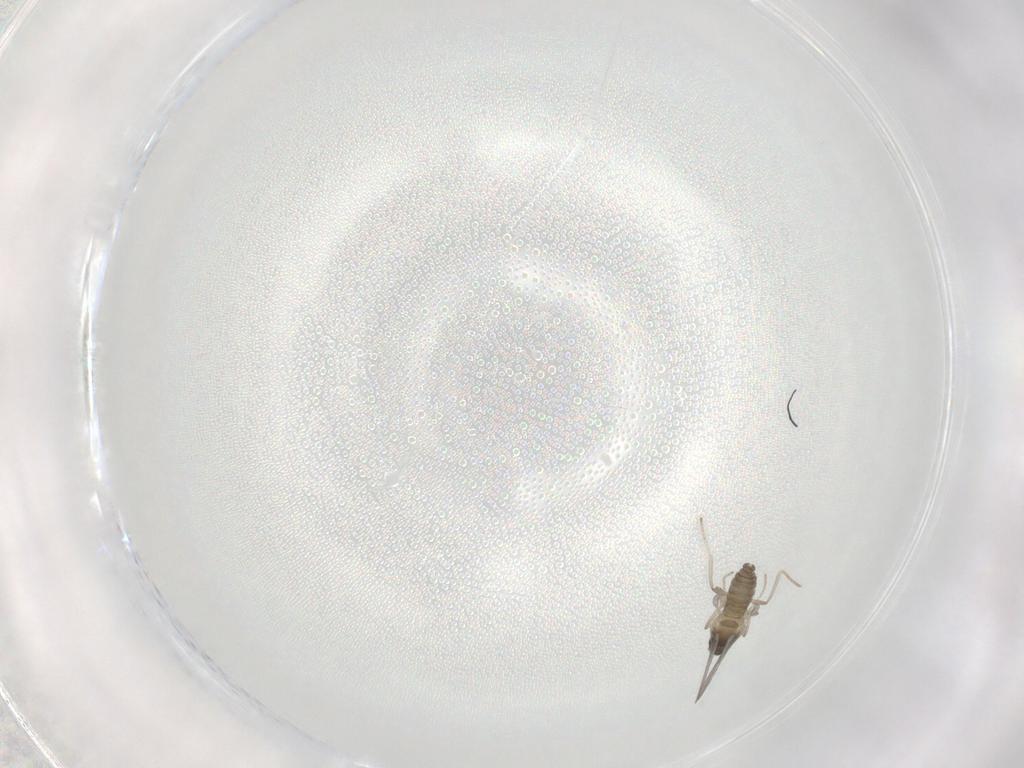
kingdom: Animalia
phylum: Arthropoda
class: Insecta
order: Diptera
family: Cecidomyiidae
